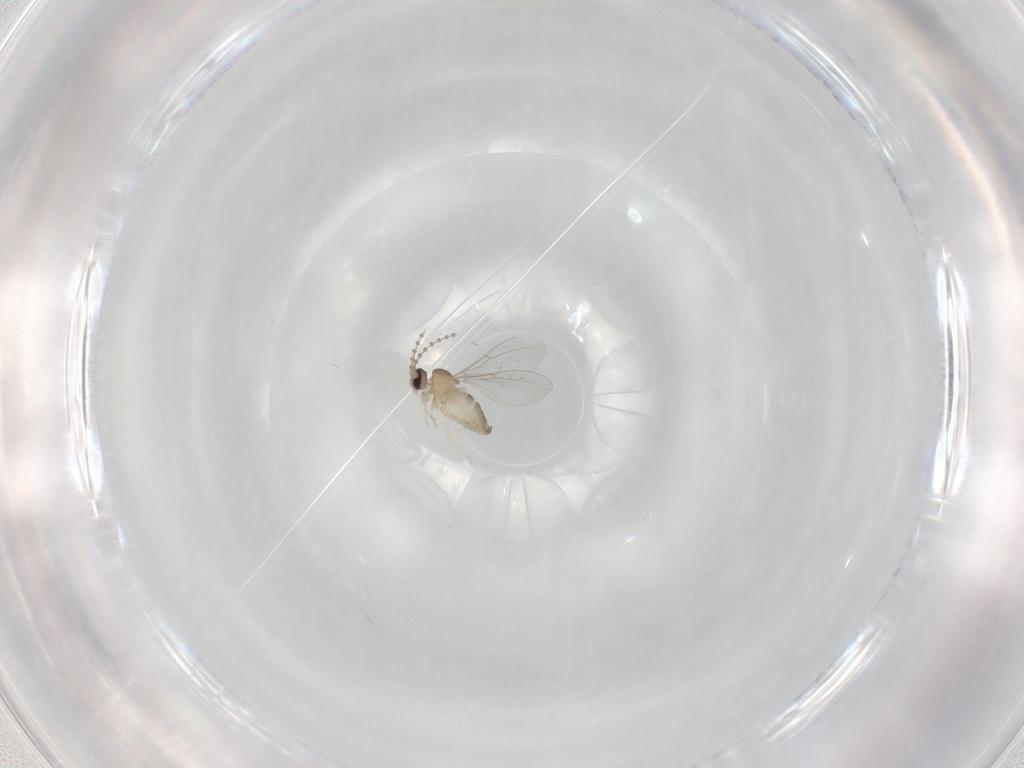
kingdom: Animalia
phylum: Arthropoda
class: Insecta
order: Diptera
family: Cecidomyiidae
